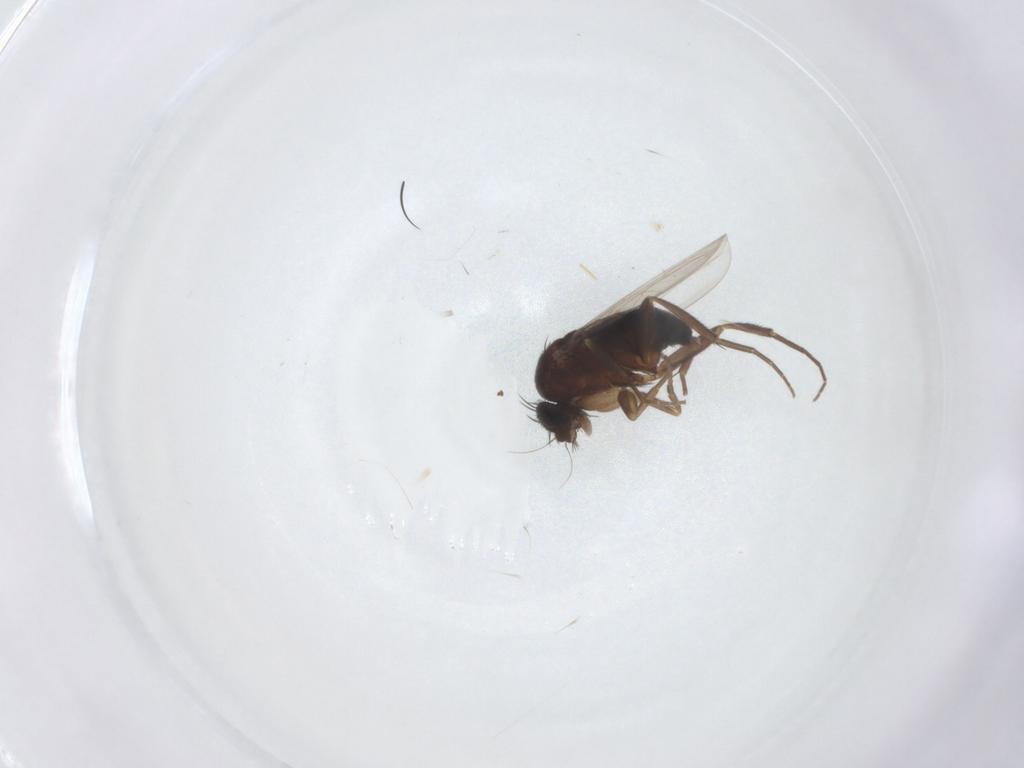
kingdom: Animalia
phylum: Arthropoda
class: Insecta
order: Diptera
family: Phoridae
